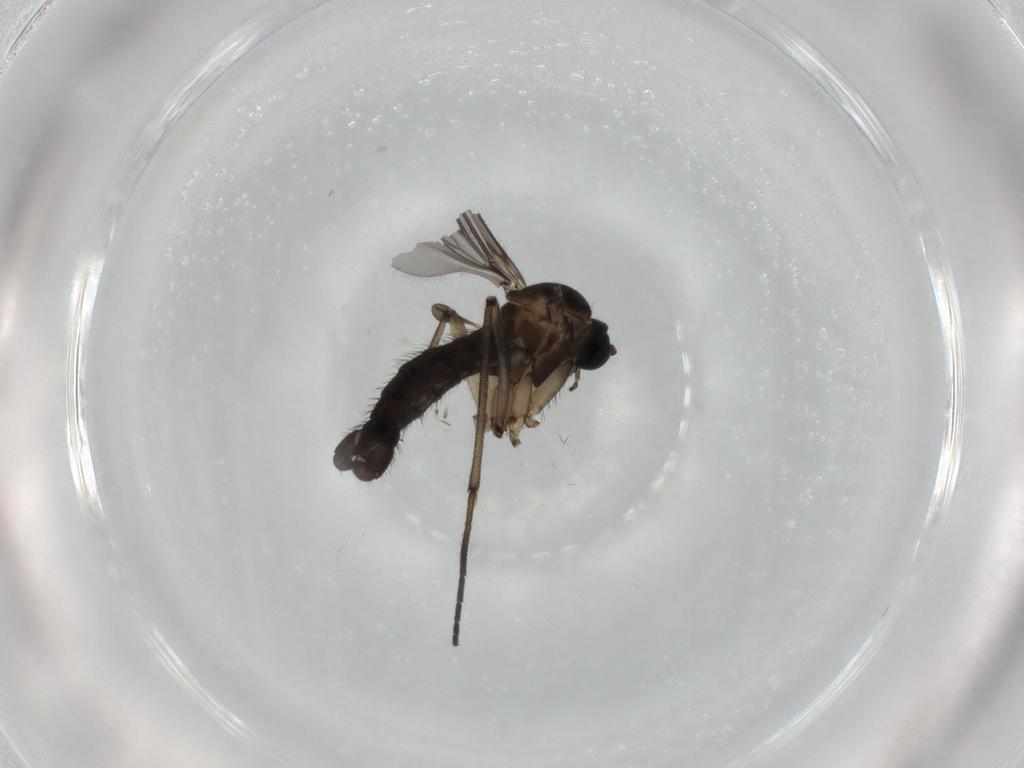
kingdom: Animalia
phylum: Arthropoda
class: Insecta
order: Diptera
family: Sciaridae
